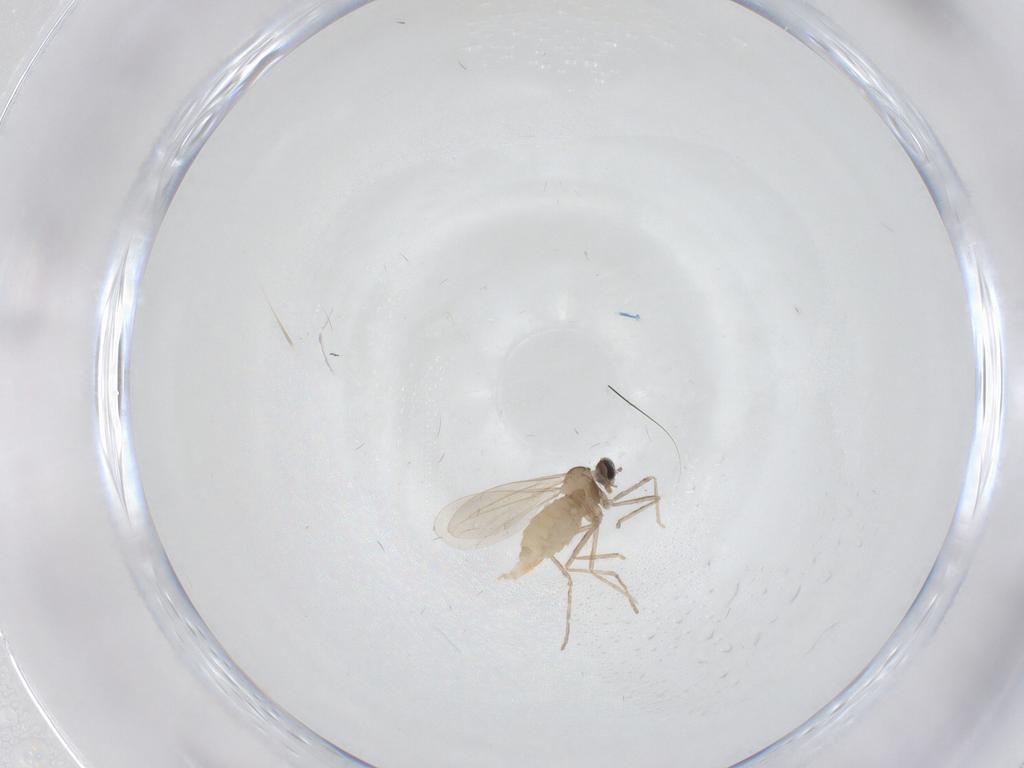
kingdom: Animalia
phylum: Arthropoda
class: Insecta
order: Diptera
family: Cecidomyiidae
